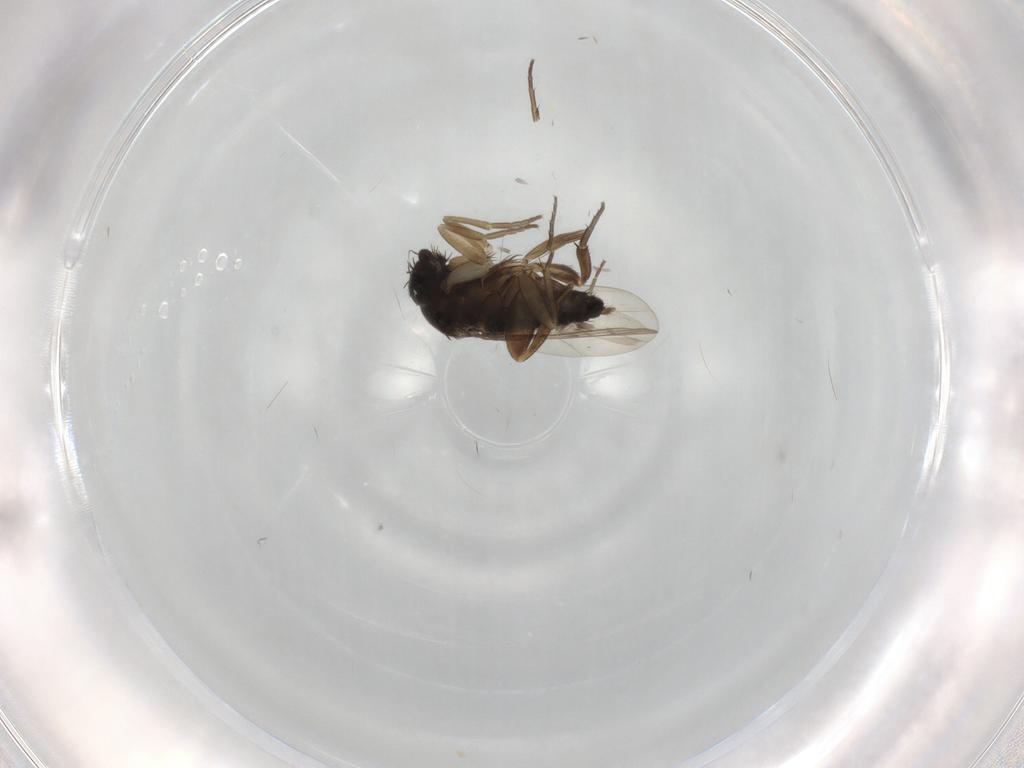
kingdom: Animalia
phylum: Arthropoda
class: Insecta
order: Diptera
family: Phoridae
